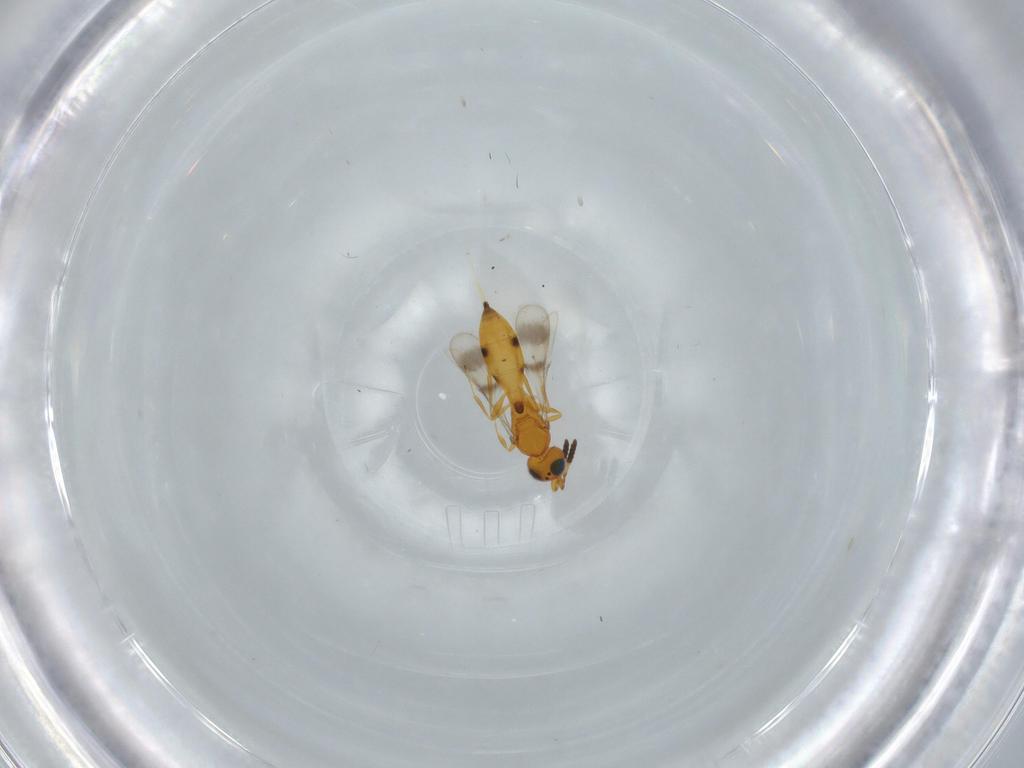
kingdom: Animalia
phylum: Arthropoda
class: Insecta
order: Hymenoptera
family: Scelionidae
